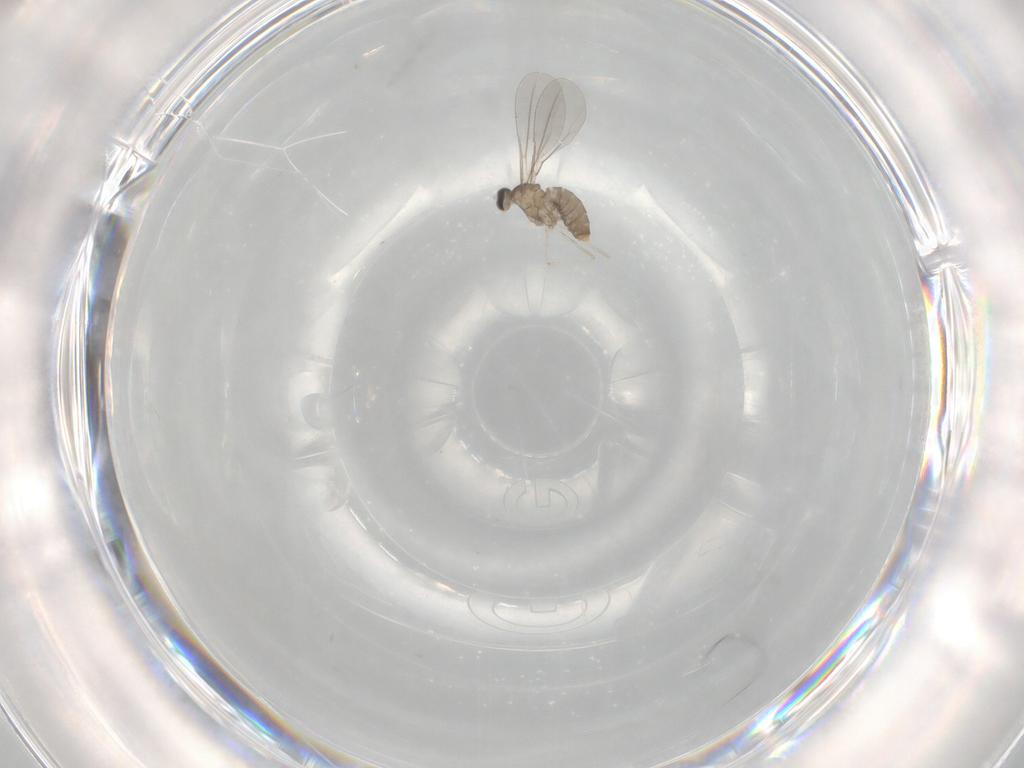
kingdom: Animalia
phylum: Arthropoda
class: Insecta
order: Diptera
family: Cecidomyiidae
